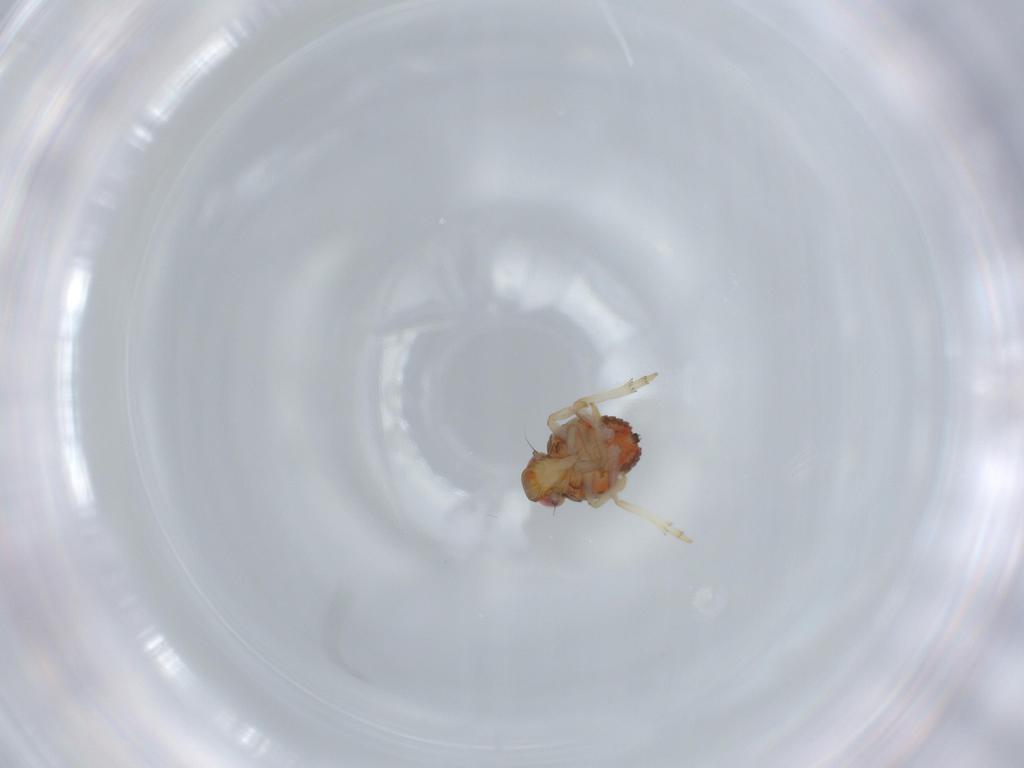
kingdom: Animalia
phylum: Arthropoda
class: Insecta
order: Hemiptera
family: Issidae
